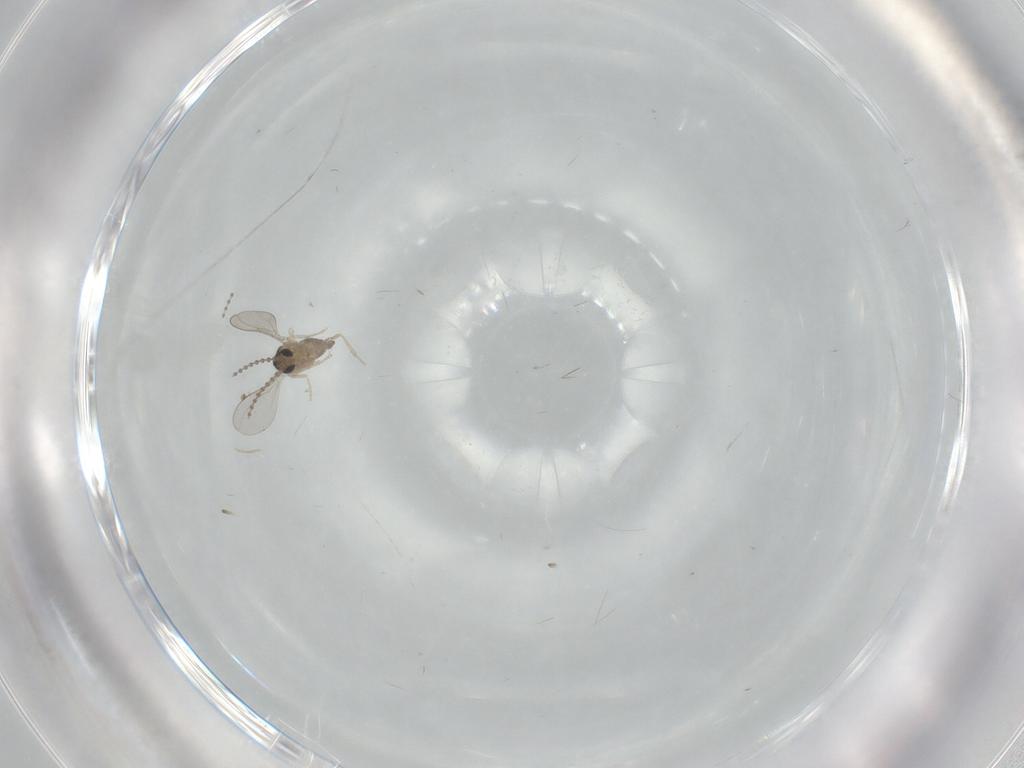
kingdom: Animalia
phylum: Arthropoda
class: Insecta
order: Diptera
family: Cecidomyiidae
